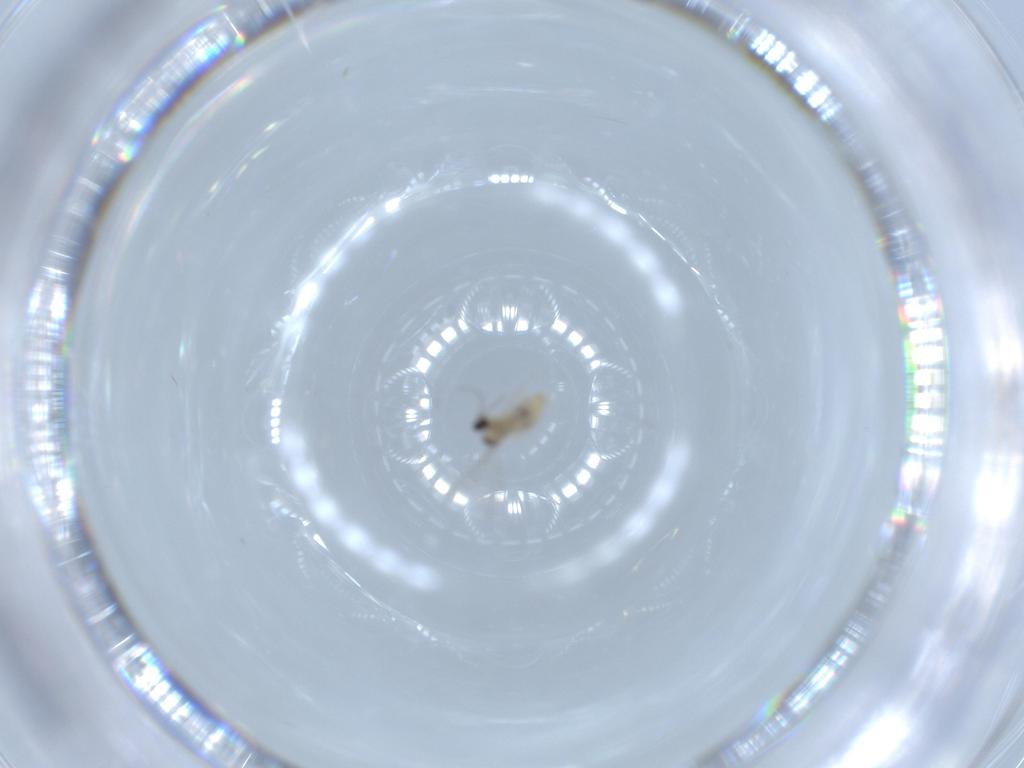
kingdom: Animalia
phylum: Arthropoda
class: Insecta
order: Diptera
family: Cecidomyiidae
